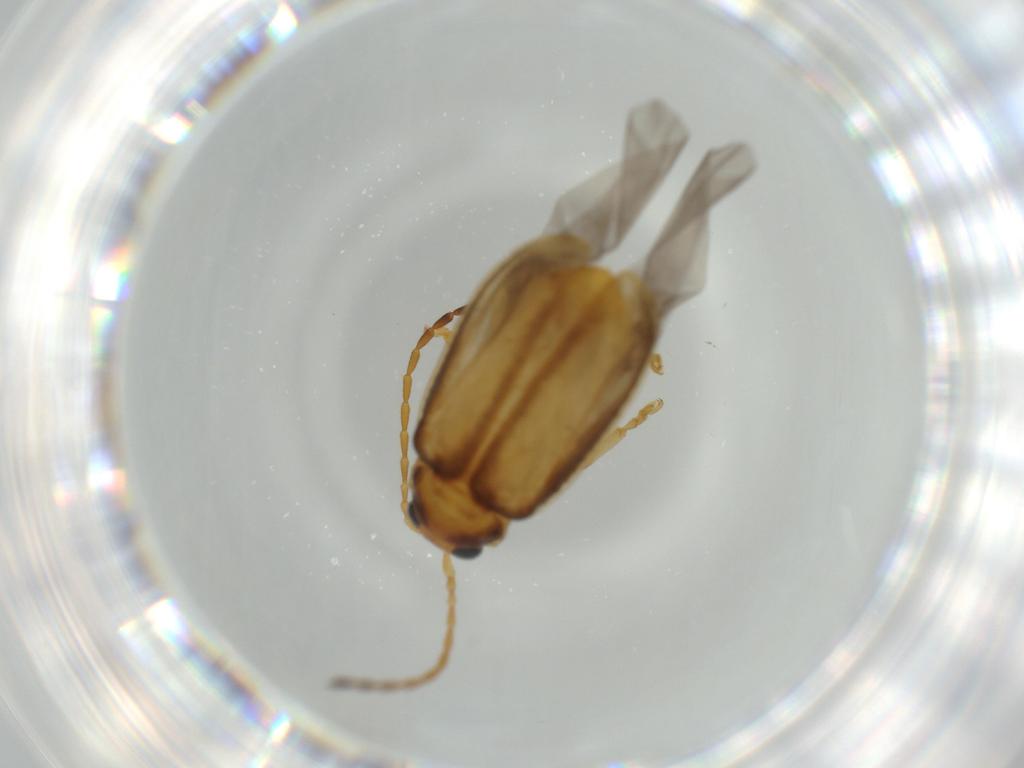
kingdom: Animalia
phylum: Arthropoda
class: Insecta
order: Coleoptera
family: Chrysomelidae
